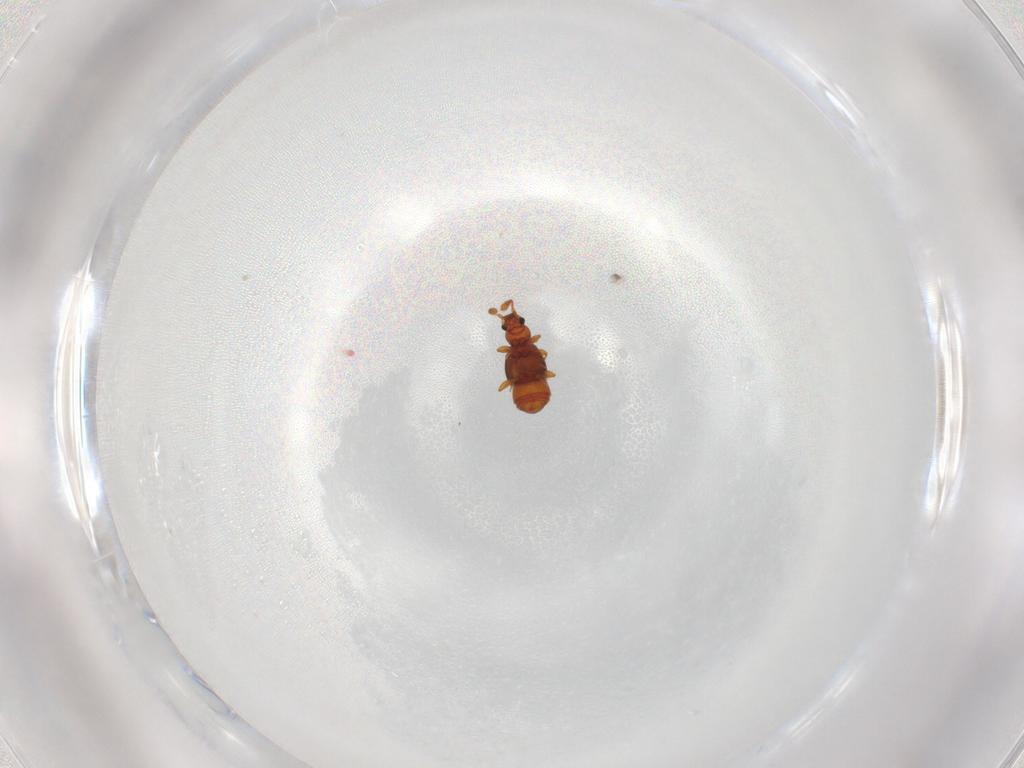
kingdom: Animalia
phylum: Arthropoda
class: Insecta
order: Coleoptera
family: Staphylinidae
